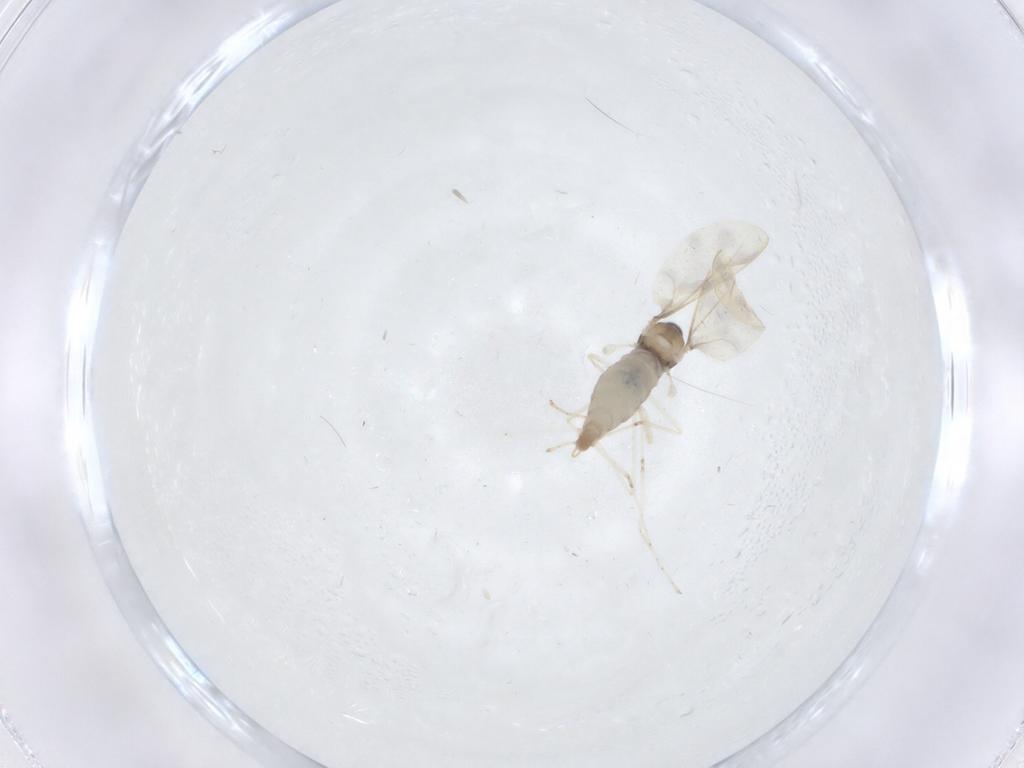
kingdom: Animalia
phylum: Arthropoda
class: Insecta
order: Diptera
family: Cecidomyiidae
